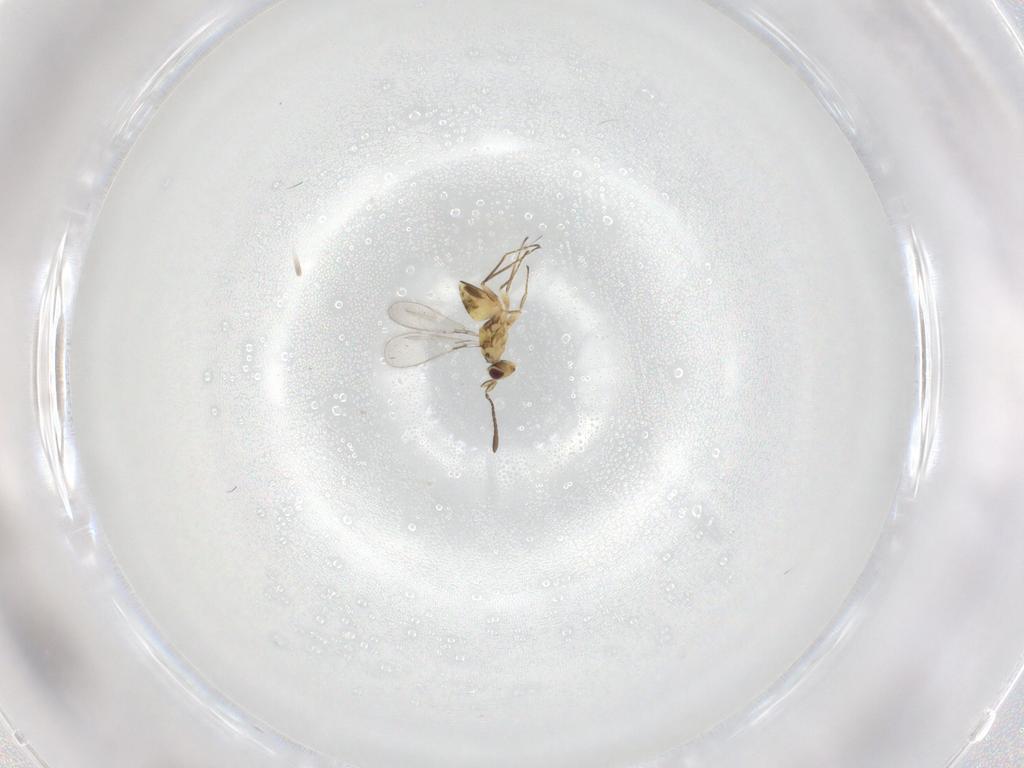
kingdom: Animalia
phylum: Arthropoda
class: Insecta
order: Hymenoptera
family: Mymaridae
